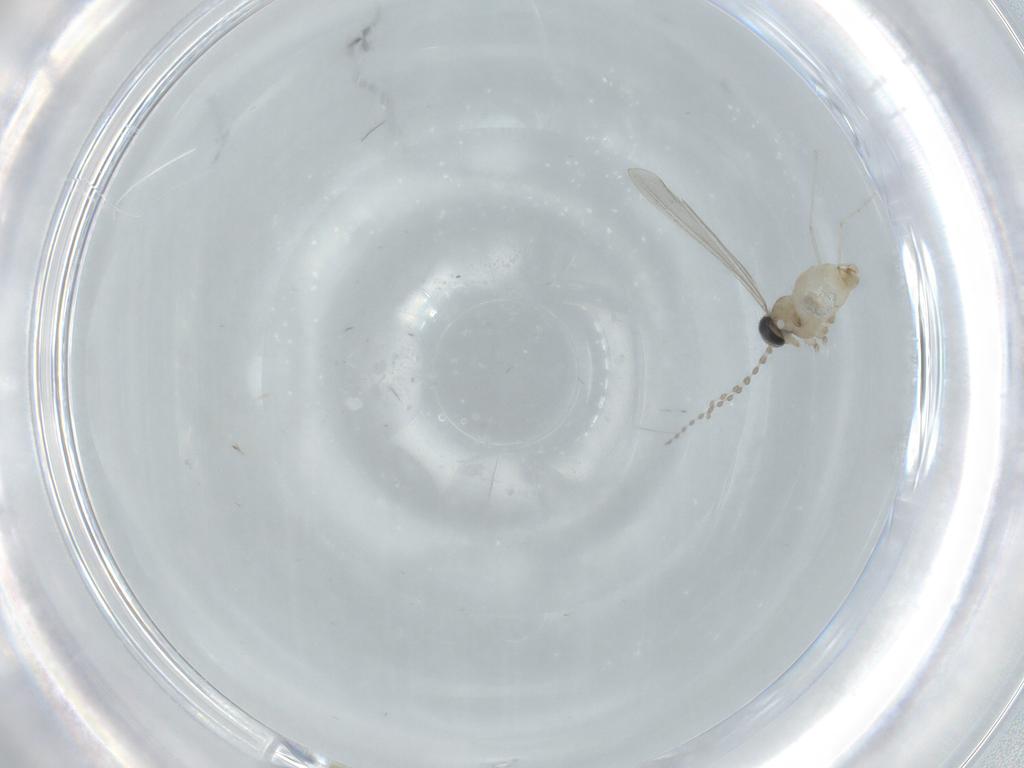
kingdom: Animalia
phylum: Arthropoda
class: Insecta
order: Diptera
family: Cecidomyiidae
